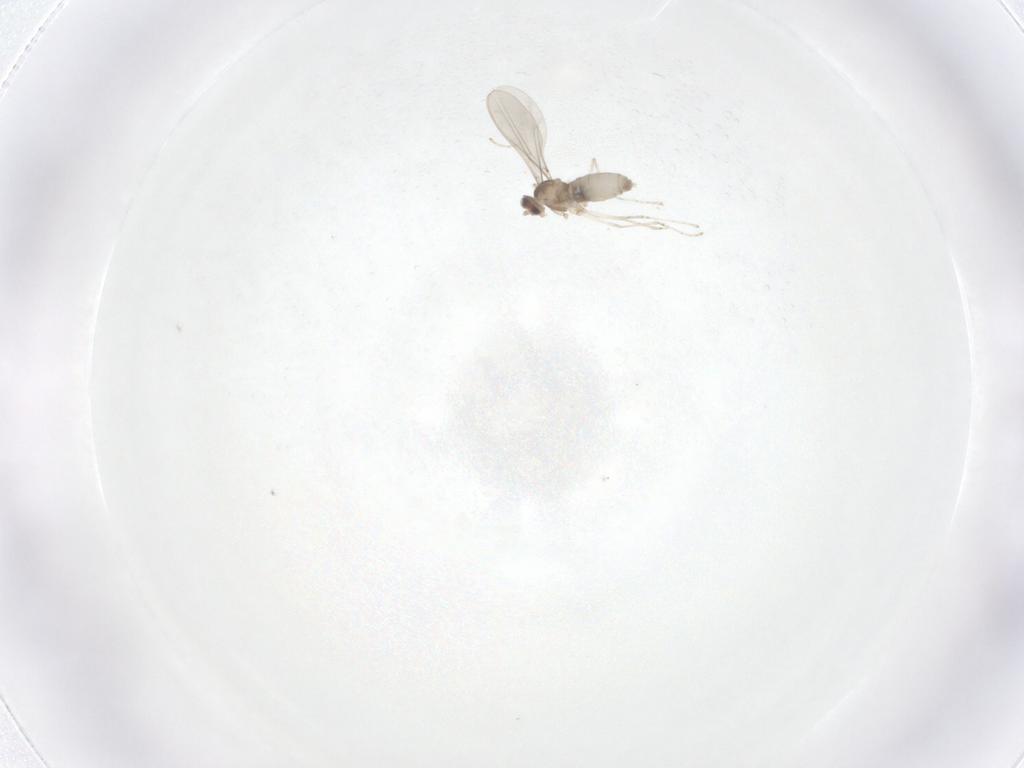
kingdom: Animalia
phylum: Arthropoda
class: Insecta
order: Diptera
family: Cecidomyiidae
